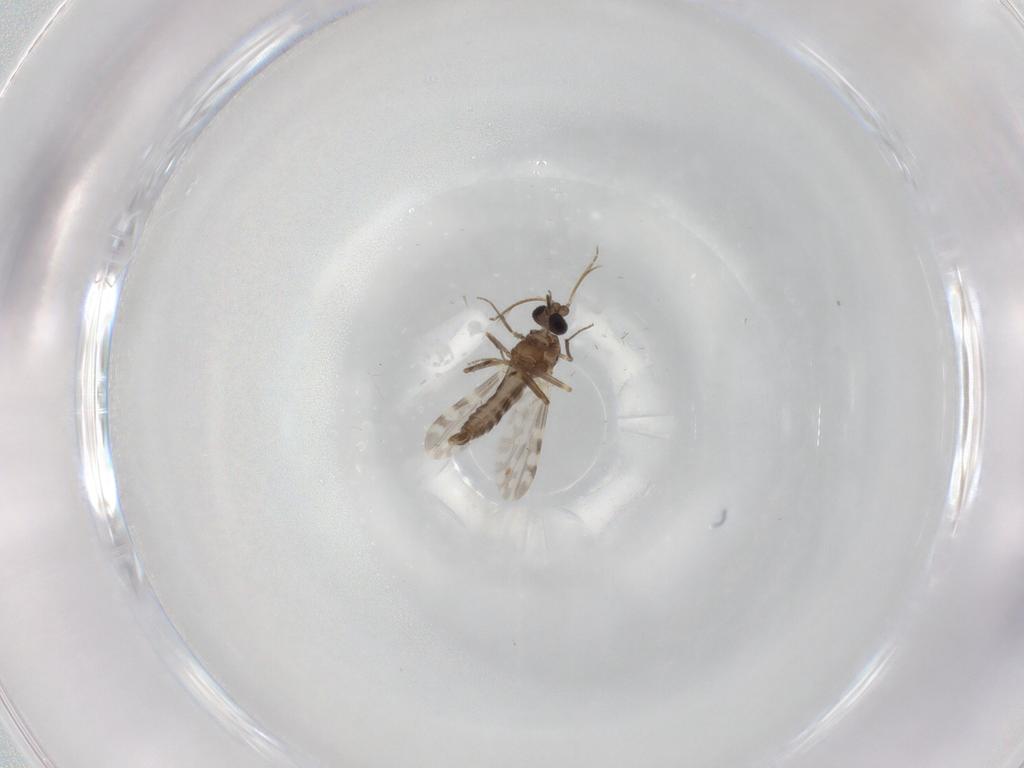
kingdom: Animalia
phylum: Arthropoda
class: Insecta
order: Diptera
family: Ceratopogonidae
